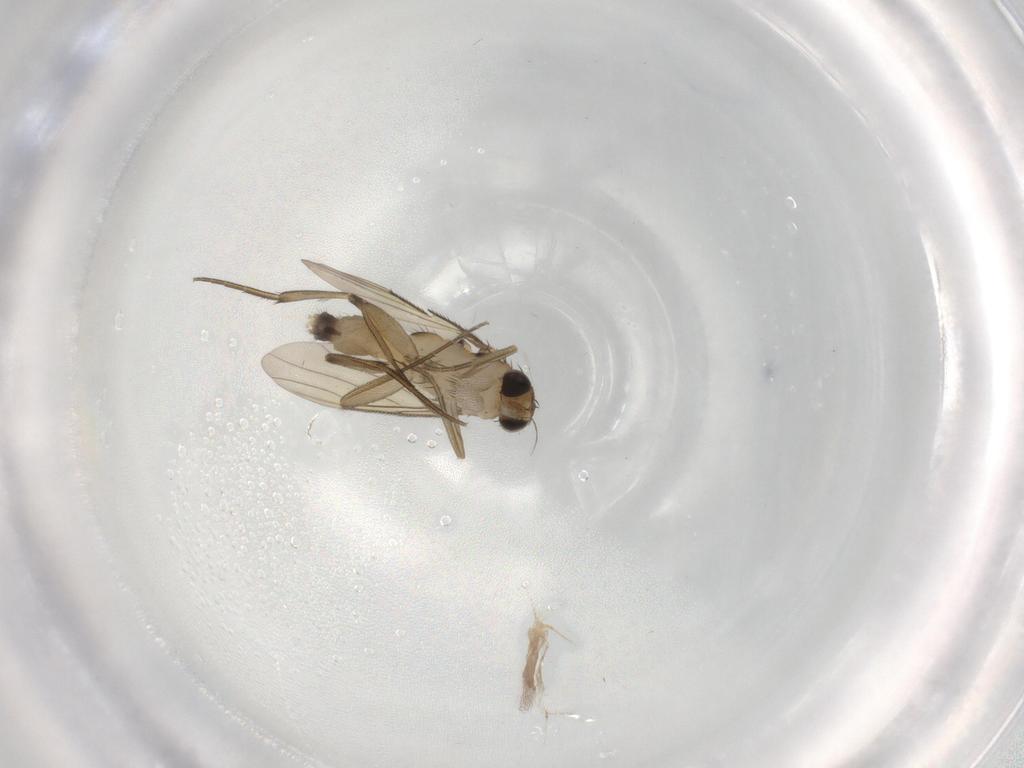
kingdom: Animalia
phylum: Arthropoda
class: Insecta
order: Diptera
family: Phoridae
